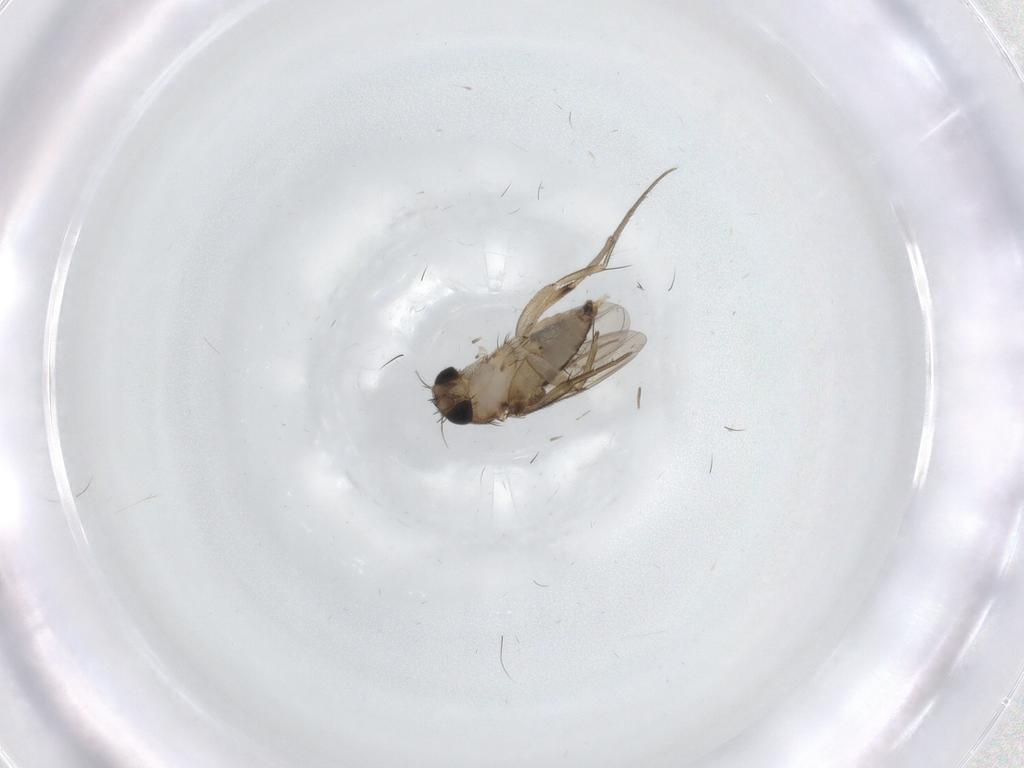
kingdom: Animalia
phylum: Arthropoda
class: Insecta
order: Diptera
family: Phoridae
